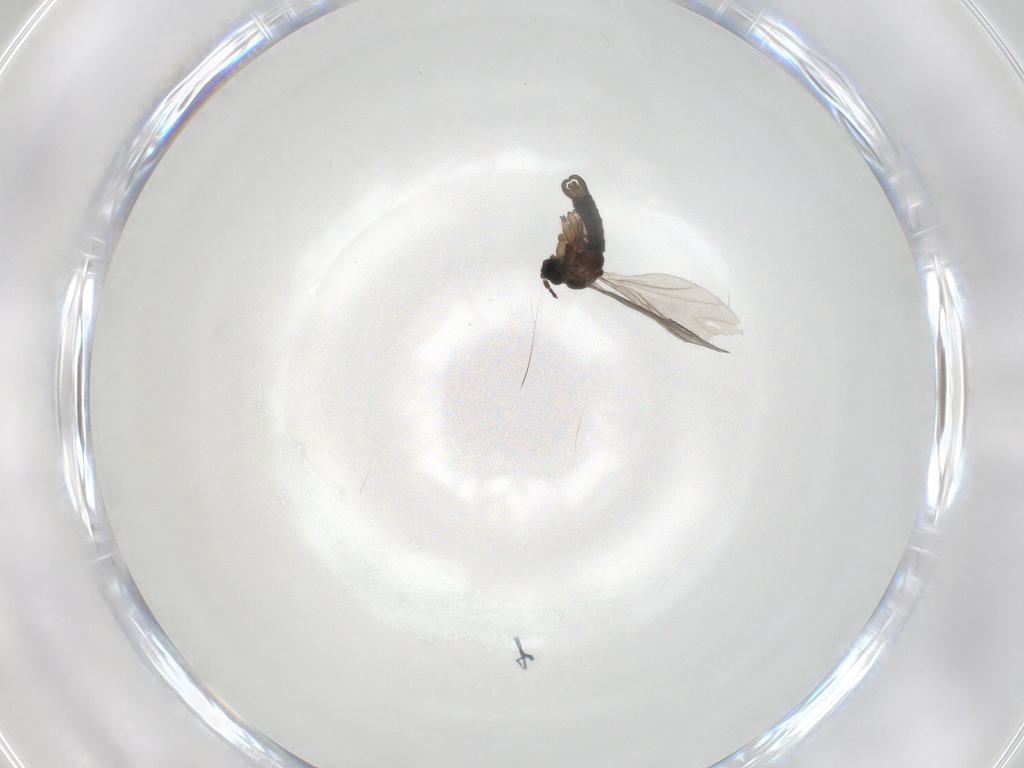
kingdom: Animalia
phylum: Arthropoda
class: Insecta
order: Diptera
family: Sciaridae
